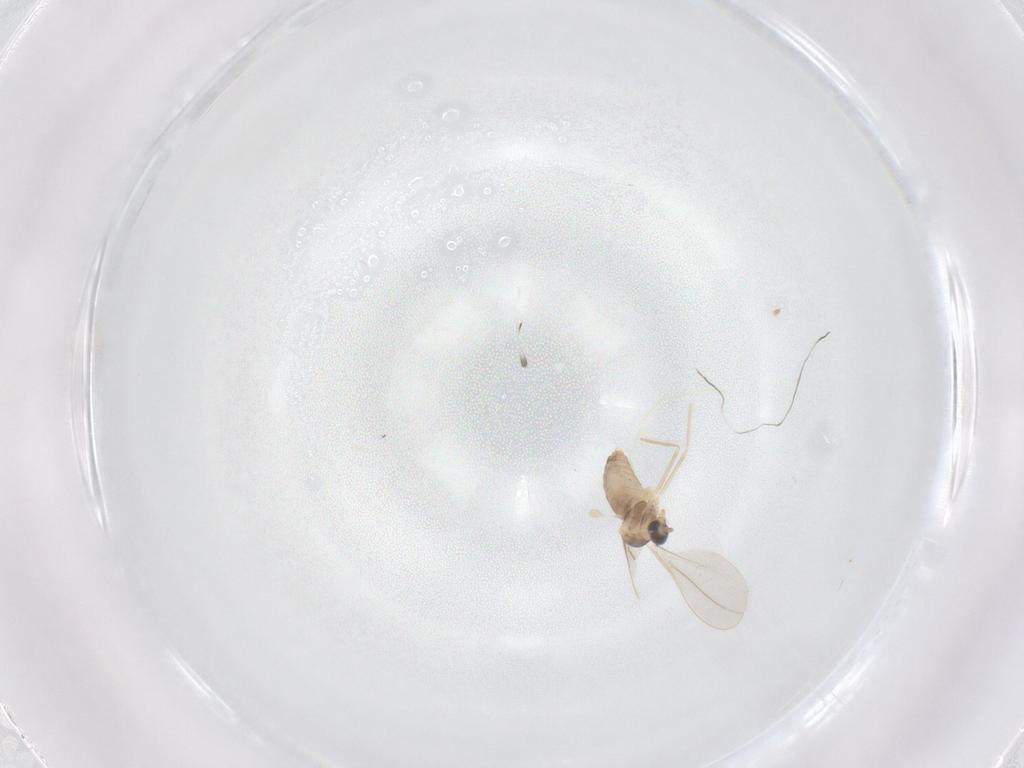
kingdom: Animalia
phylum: Arthropoda
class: Insecta
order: Diptera
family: Cecidomyiidae
